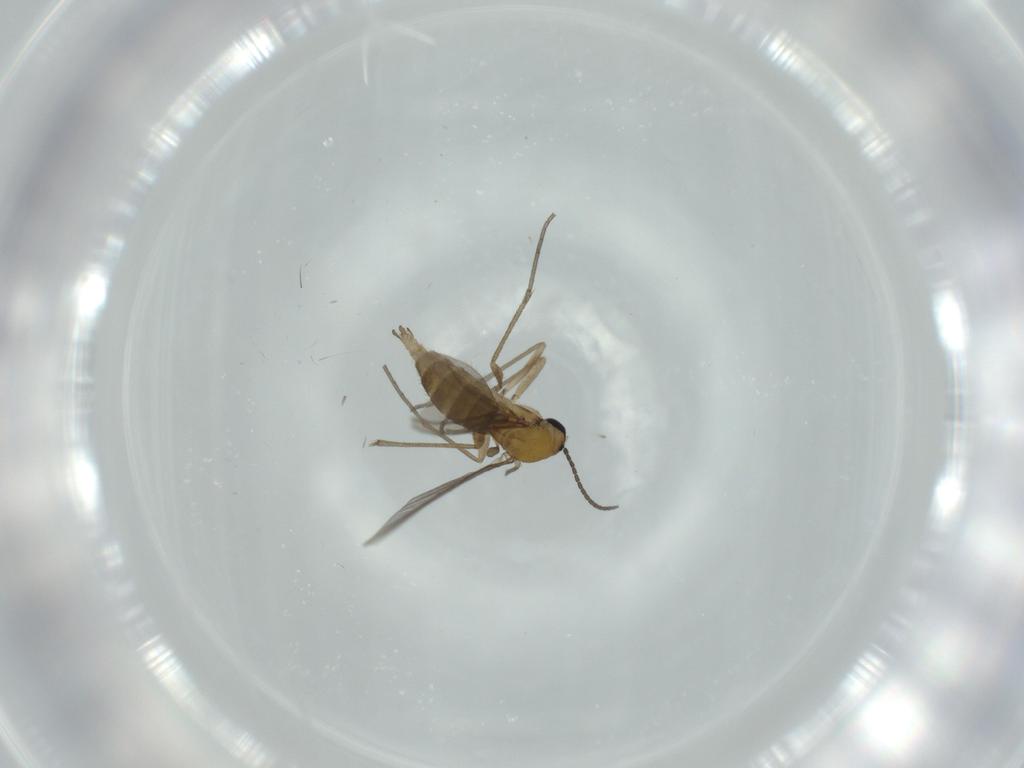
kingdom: Animalia
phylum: Arthropoda
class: Insecta
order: Diptera
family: Sciaridae
